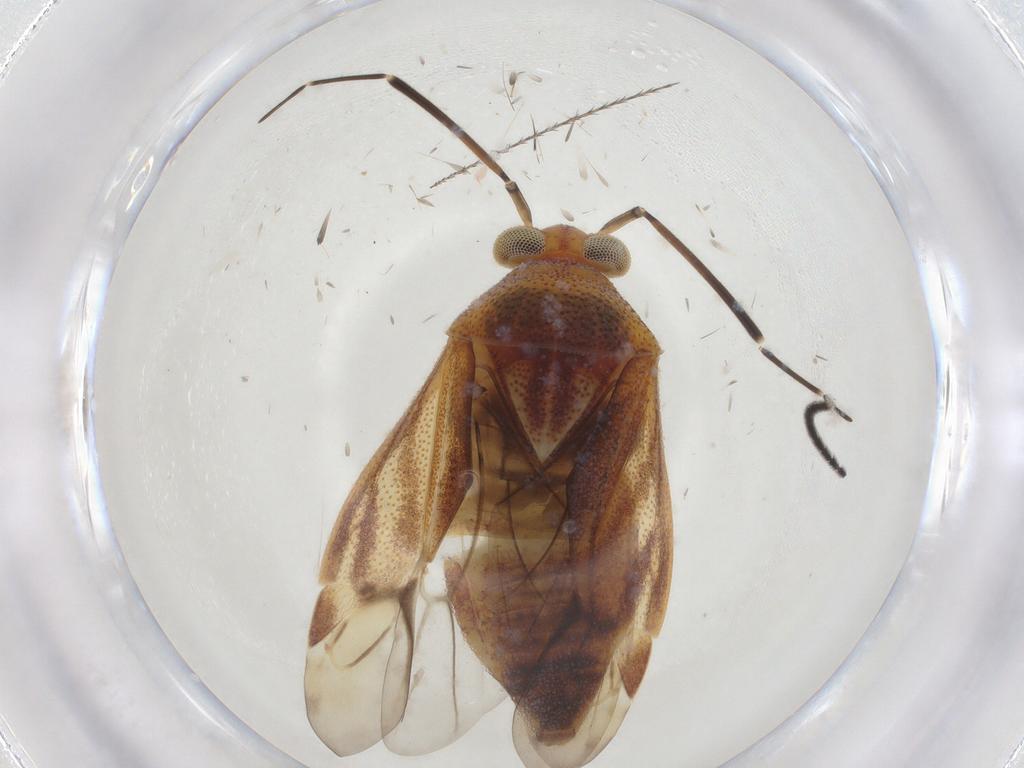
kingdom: Animalia
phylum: Arthropoda
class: Insecta
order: Hemiptera
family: Miridae
